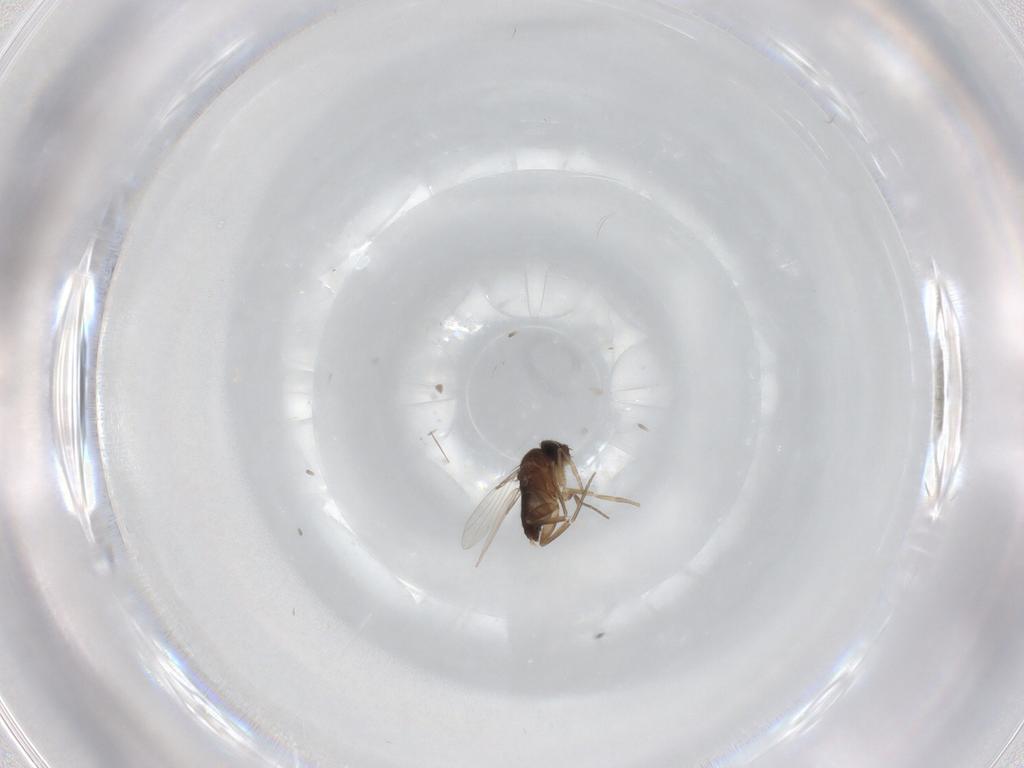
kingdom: Animalia
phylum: Arthropoda
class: Insecta
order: Diptera
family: Phoridae
